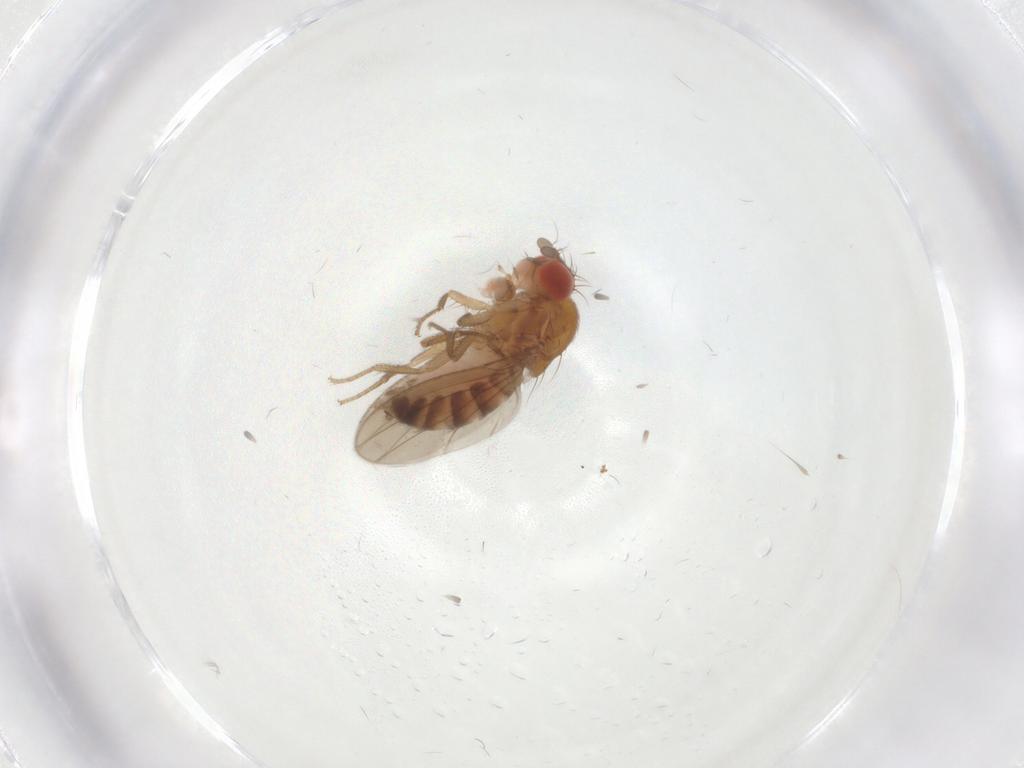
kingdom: Animalia
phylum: Arthropoda
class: Insecta
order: Diptera
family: Drosophilidae
